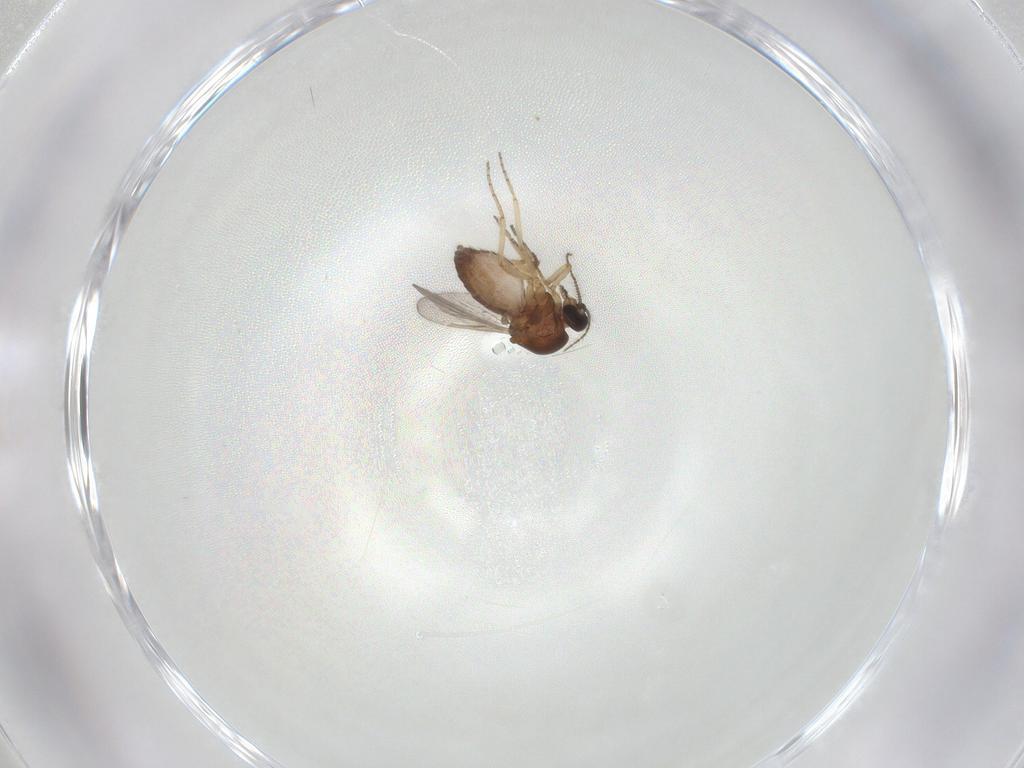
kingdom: Animalia
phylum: Arthropoda
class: Insecta
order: Diptera
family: Ceratopogonidae
